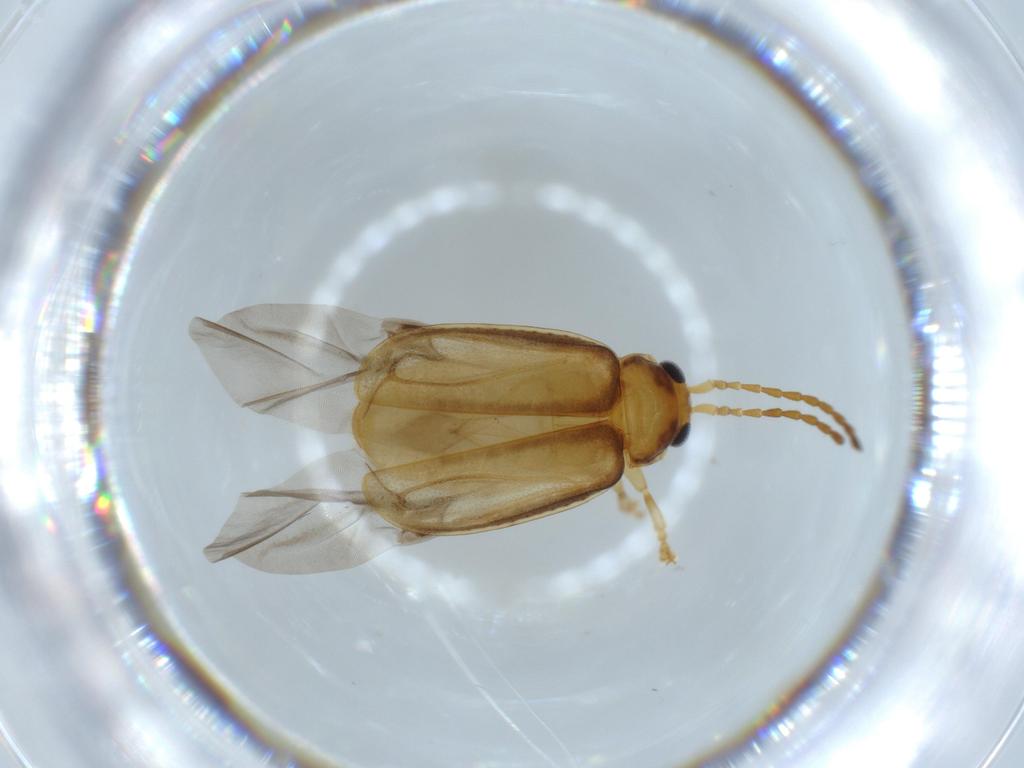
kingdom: Animalia
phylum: Arthropoda
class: Insecta
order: Coleoptera
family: Chrysomelidae
